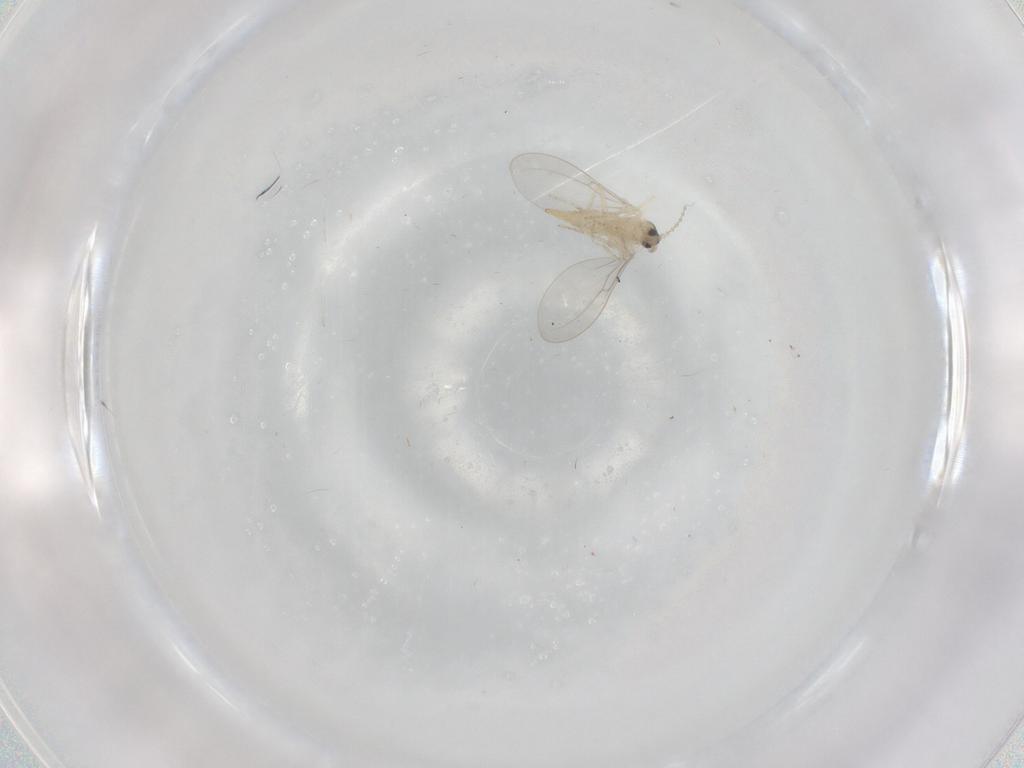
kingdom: Animalia
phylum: Arthropoda
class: Insecta
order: Diptera
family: Cecidomyiidae
